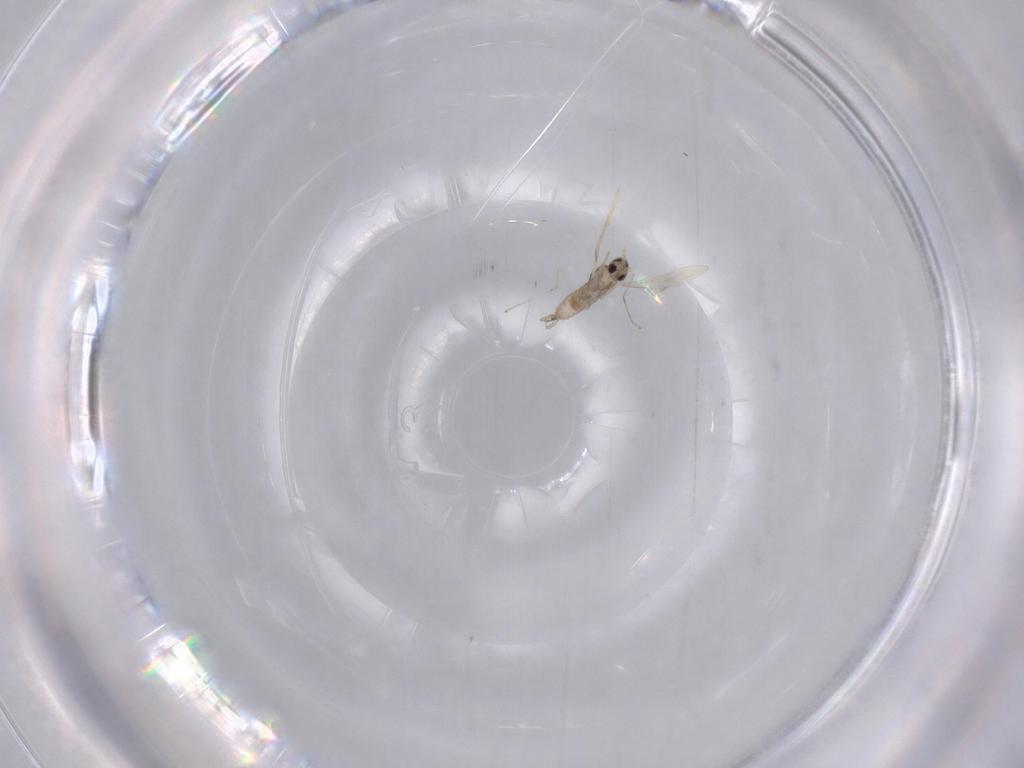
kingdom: Animalia
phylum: Arthropoda
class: Insecta
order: Diptera
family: Cecidomyiidae
